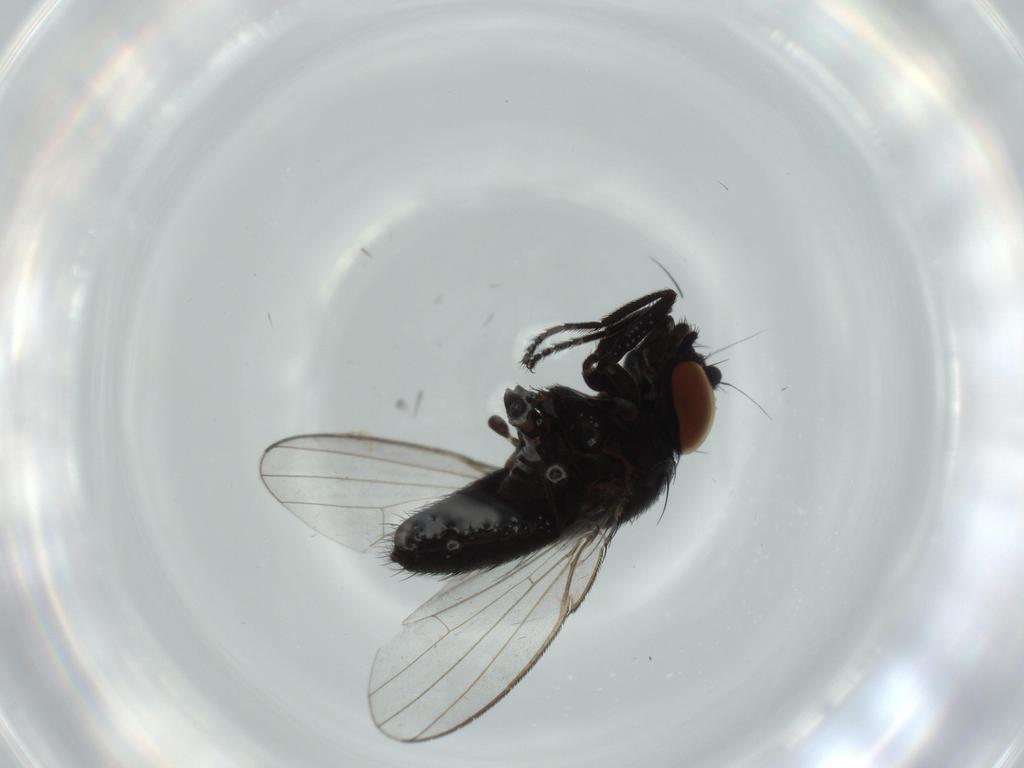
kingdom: Animalia
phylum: Arthropoda
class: Insecta
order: Diptera
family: Milichiidae
